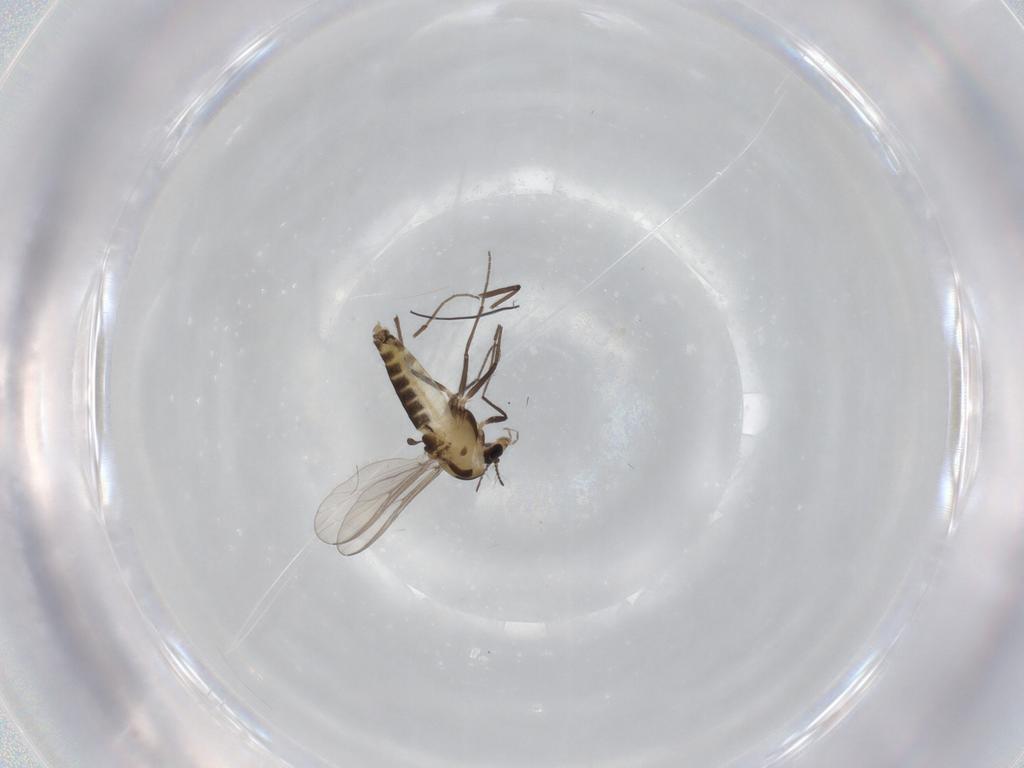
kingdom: Animalia
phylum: Arthropoda
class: Insecta
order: Diptera
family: Chironomidae
